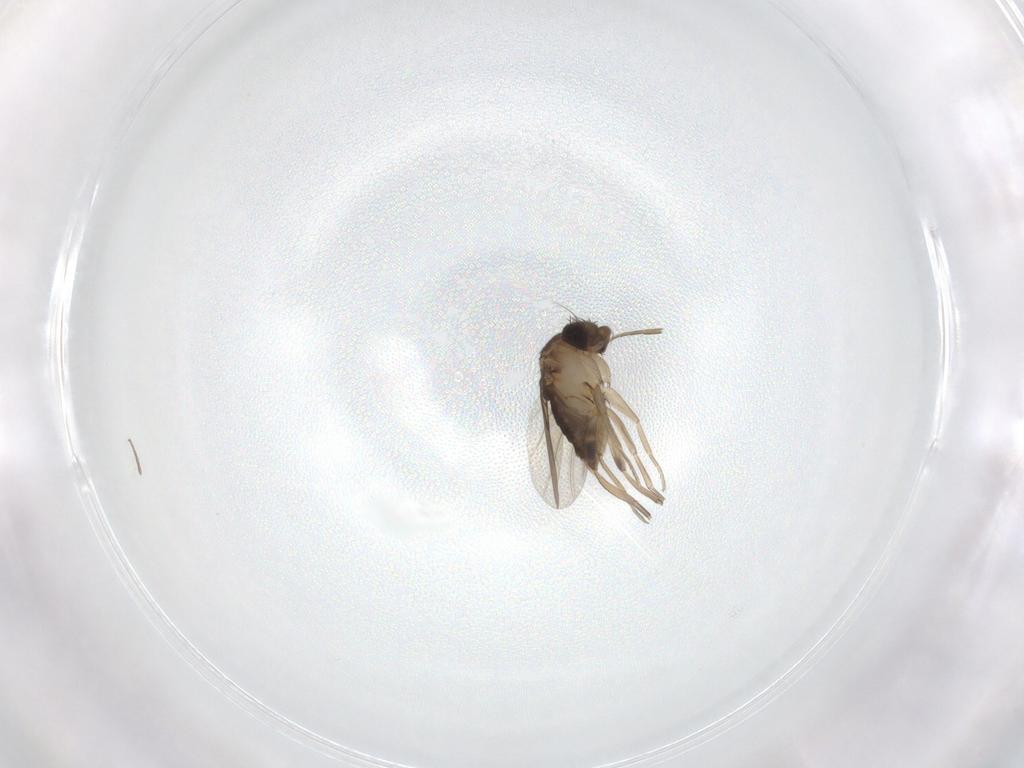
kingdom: Animalia
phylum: Arthropoda
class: Insecta
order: Diptera
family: Phoridae
